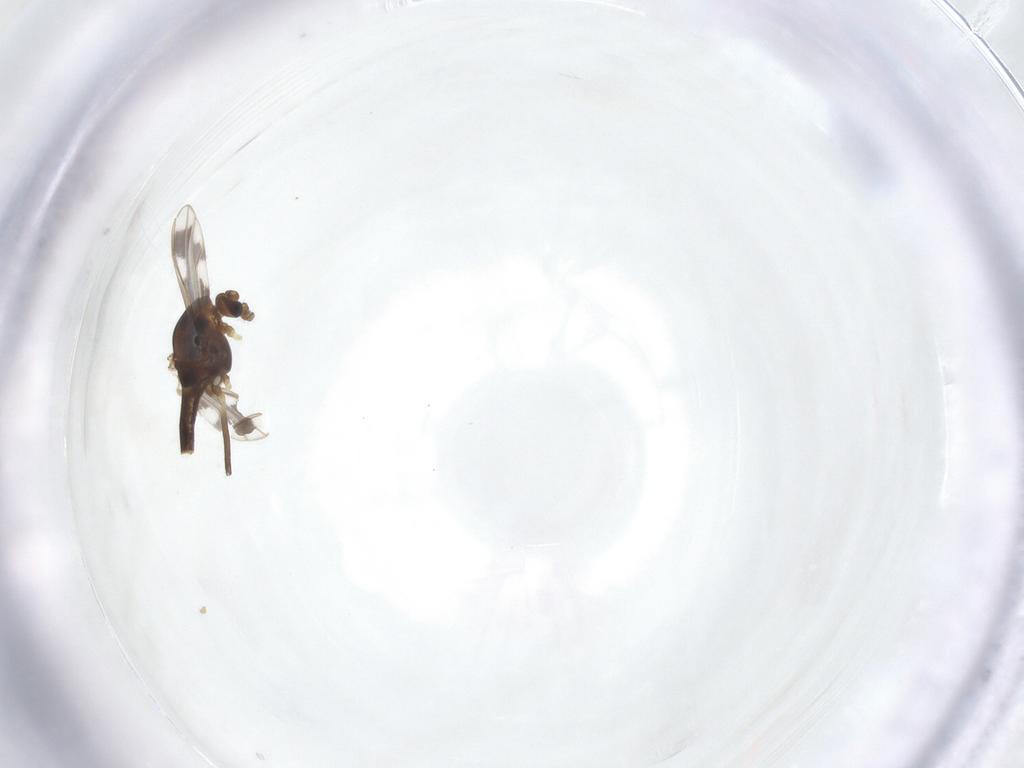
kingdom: Animalia
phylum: Arthropoda
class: Insecta
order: Diptera
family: Chironomidae
